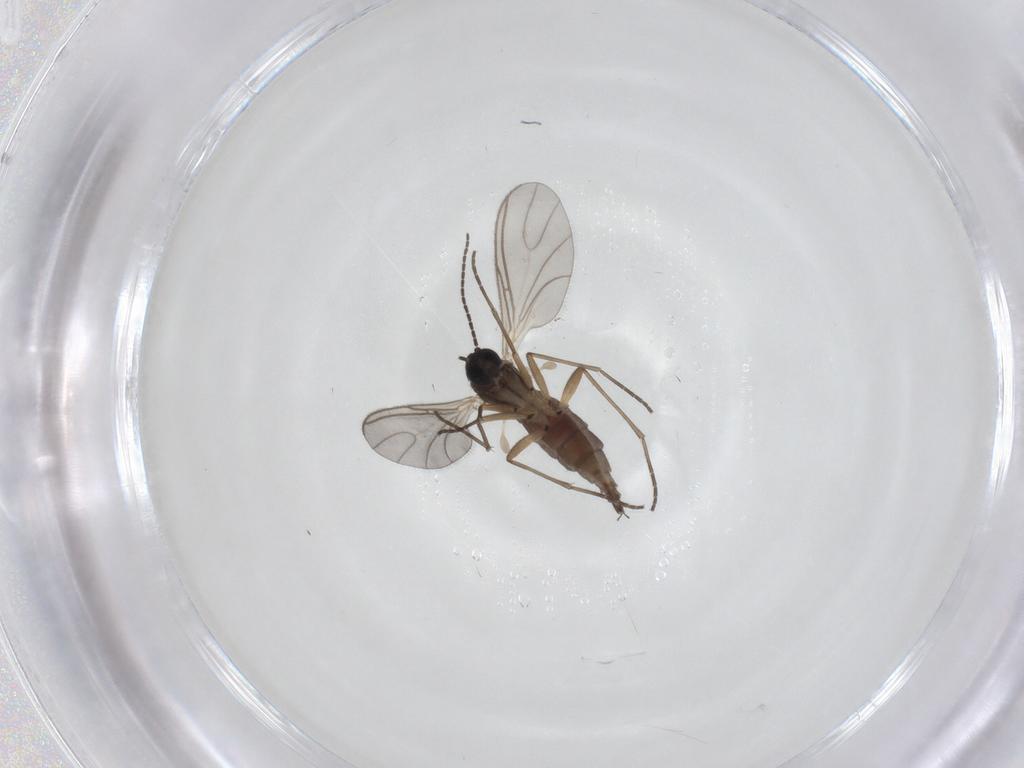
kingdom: Animalia
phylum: Arthropoda
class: Insecta
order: Diptera
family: Sciaridae
